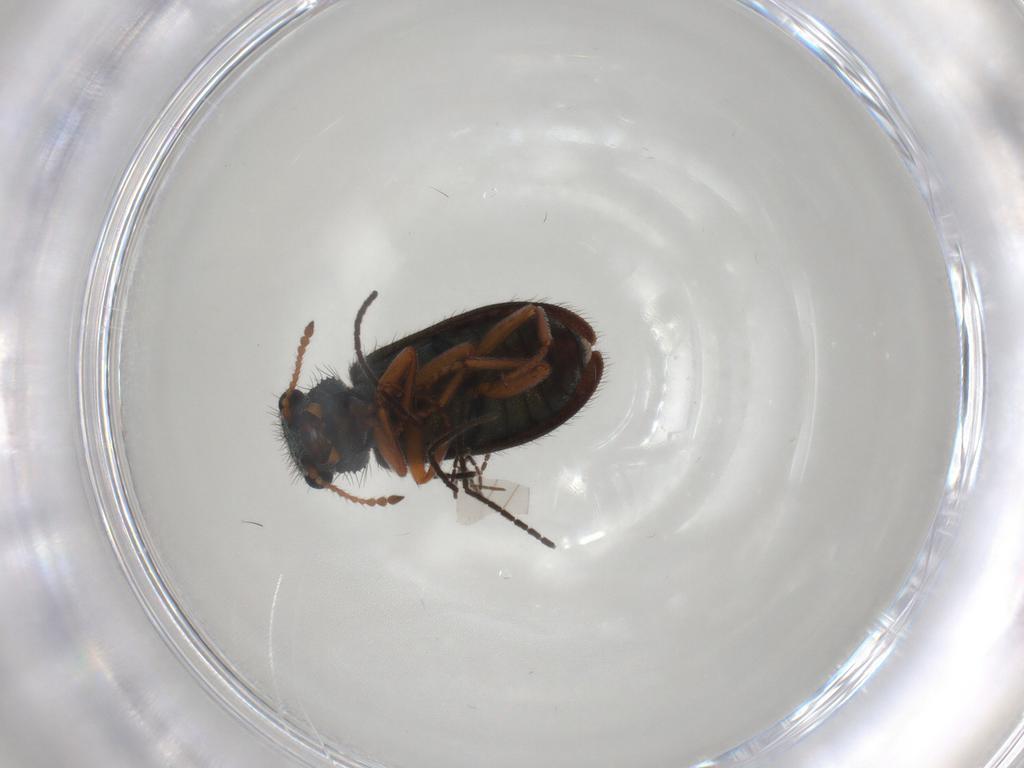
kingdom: Animalia
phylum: Arthropoda
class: Insecta
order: Coleoptera
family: Melyridae
